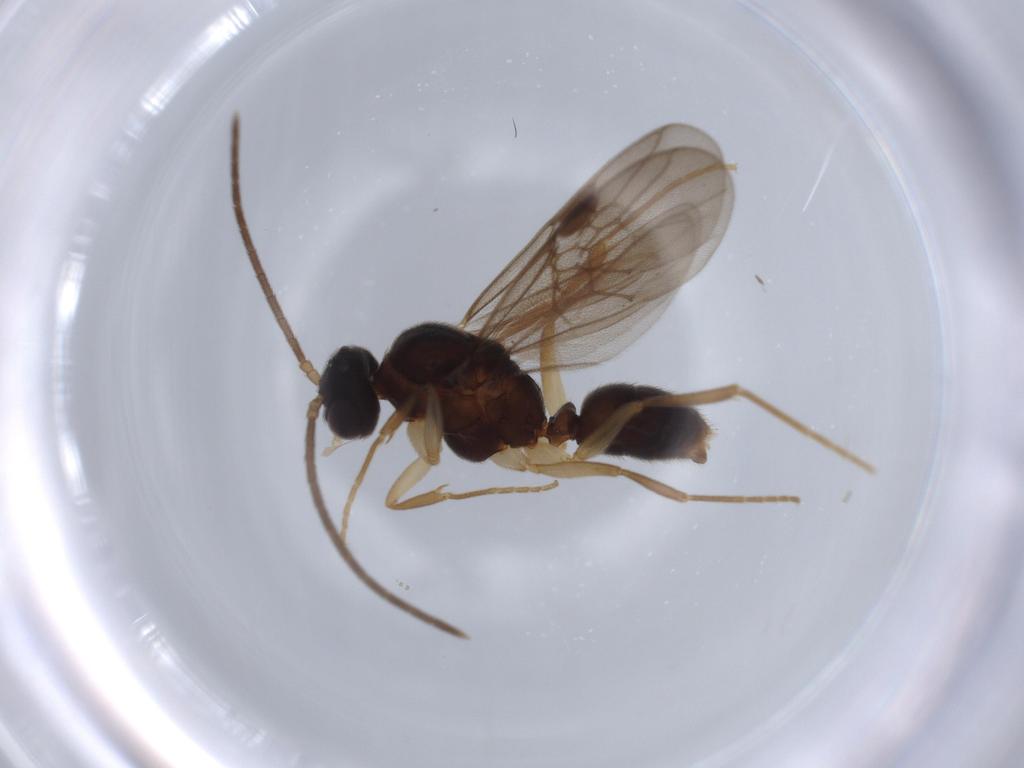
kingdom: Animalia
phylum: Arthropoda
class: Insecta
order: Hymenoptera
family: Formicidae
